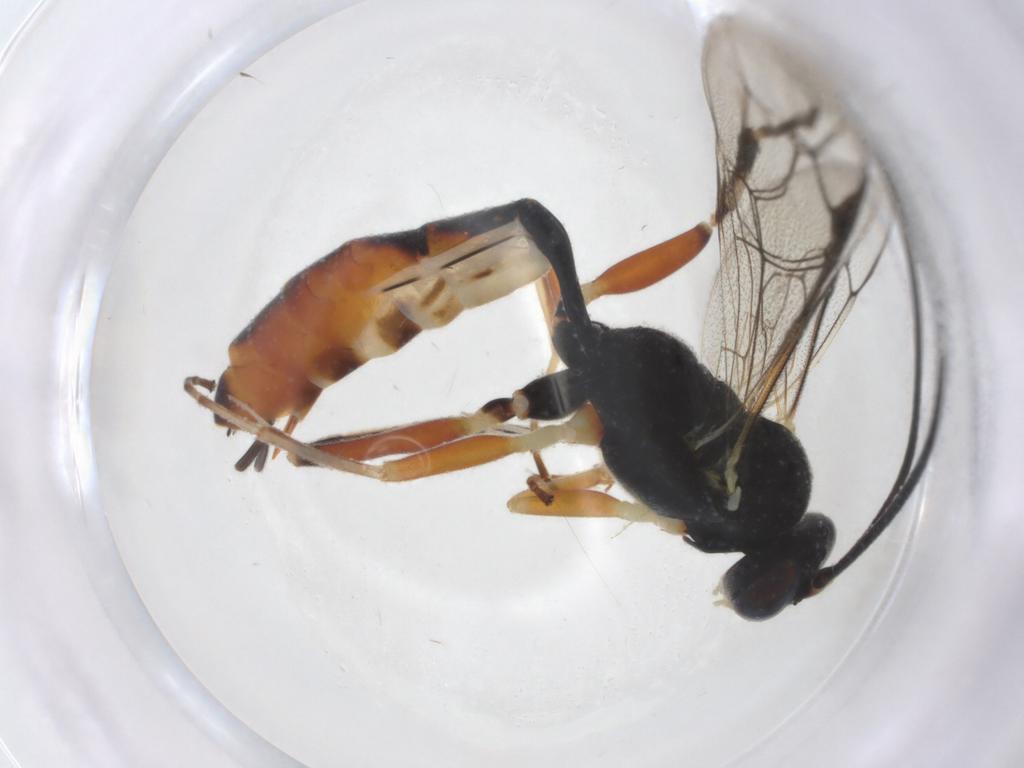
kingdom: Animalia
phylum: Arthropoda
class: Insecta
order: Hymenoptera
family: Ichneumonidae
